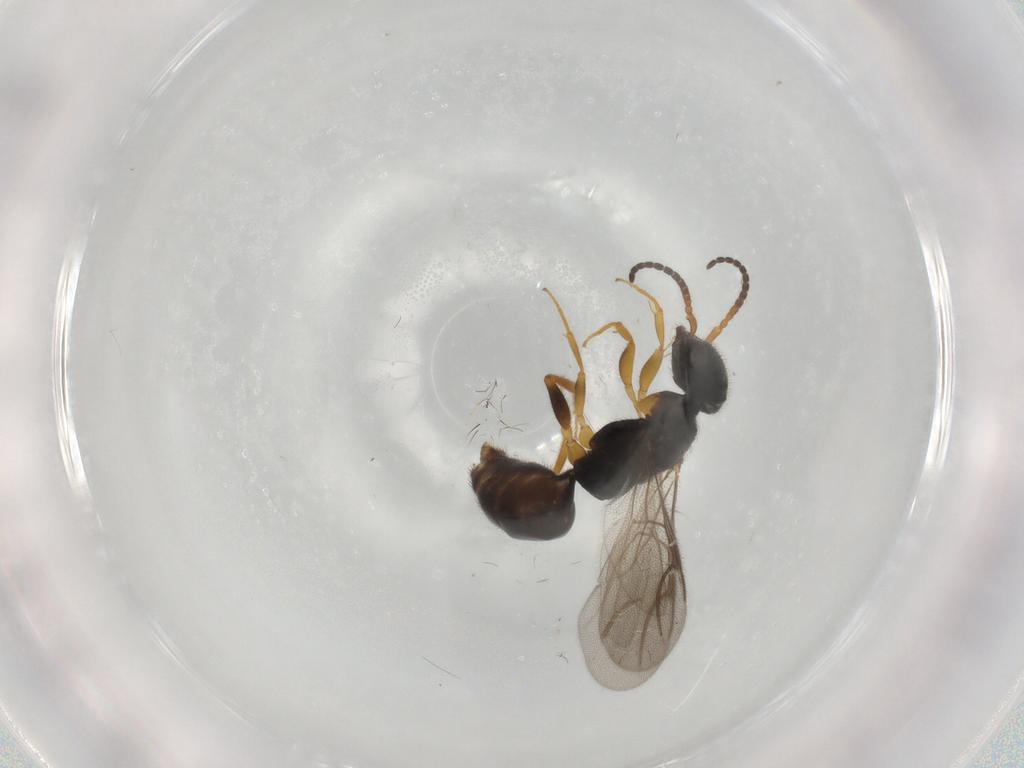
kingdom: Animalia
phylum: Arthropoda
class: Insecta
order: Hymenoptera
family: Bethylidae
